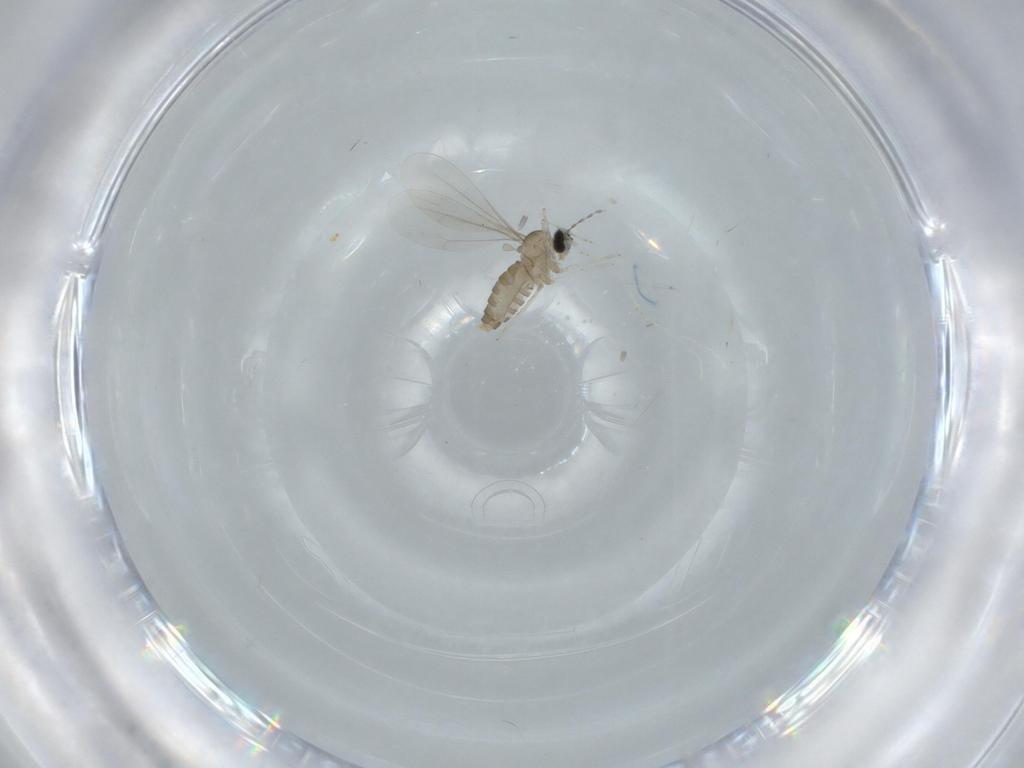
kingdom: Animalia
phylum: Arthropoda
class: Insecta
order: Diptera
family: Cecidomyiidae
